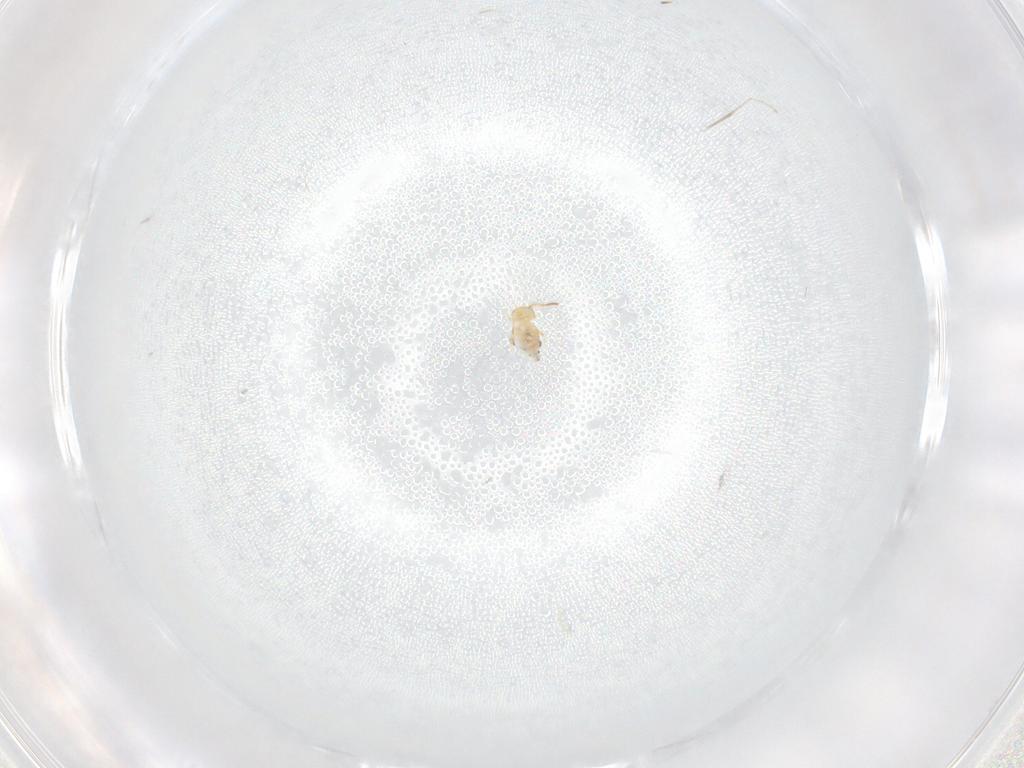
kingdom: Animalia
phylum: Arthropoda
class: Collembola
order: Symphypleona
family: Bourletiellidae
